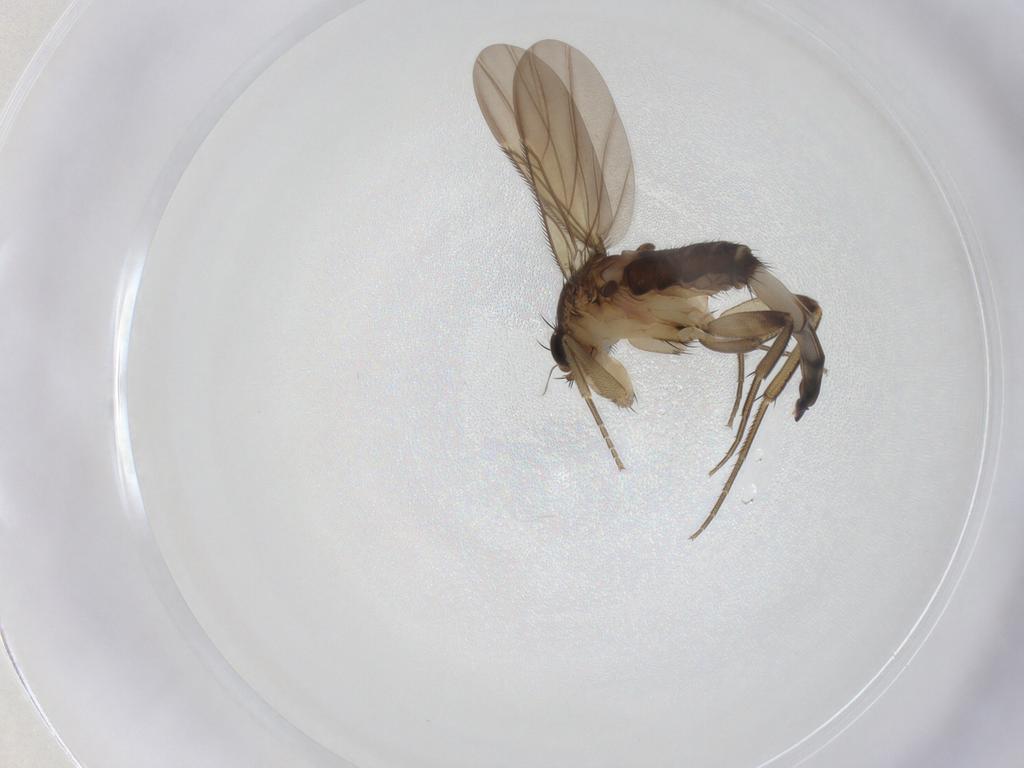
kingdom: Animalia
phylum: Arthropoda
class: Insecta
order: Diptera
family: Phoridae
